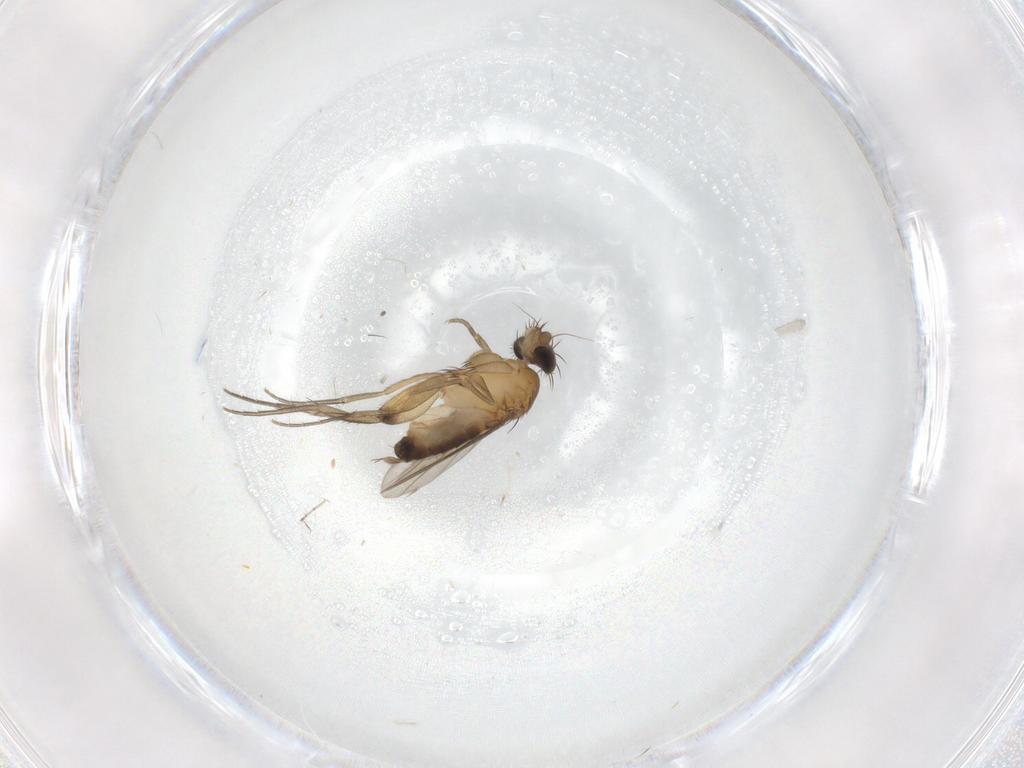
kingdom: Animalia
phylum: Arthropoda
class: Insecta
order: Diptera
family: Phoridae
